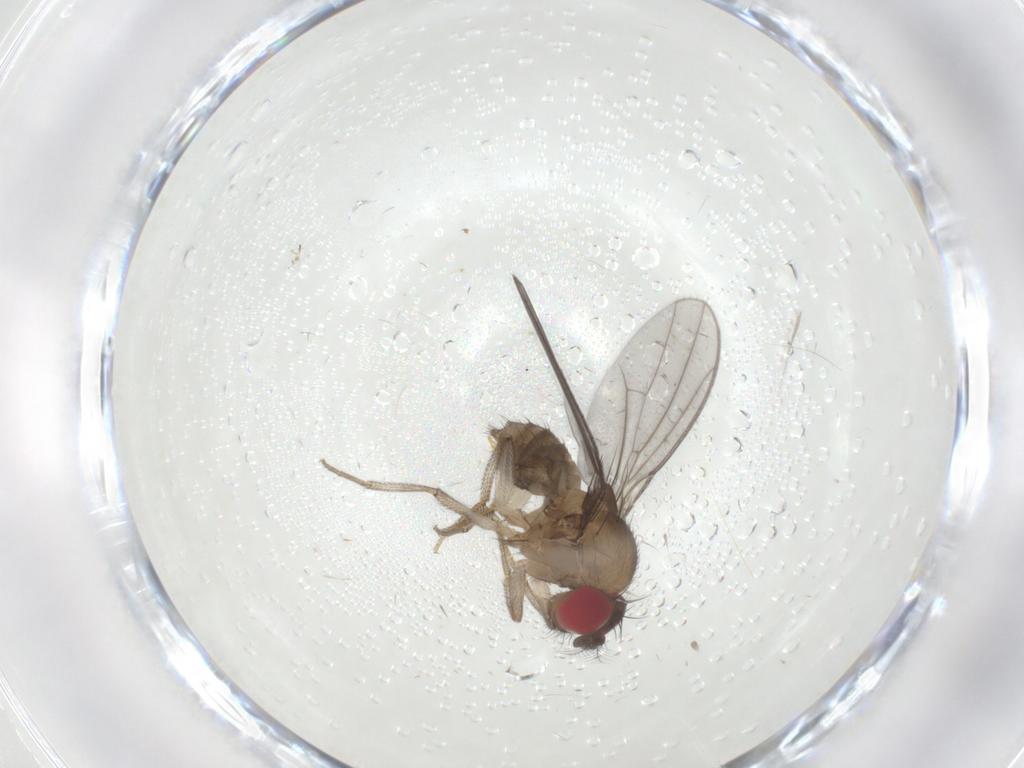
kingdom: Animalia
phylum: Arthropoda
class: Insecta
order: Diptera
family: Drosophilidae
